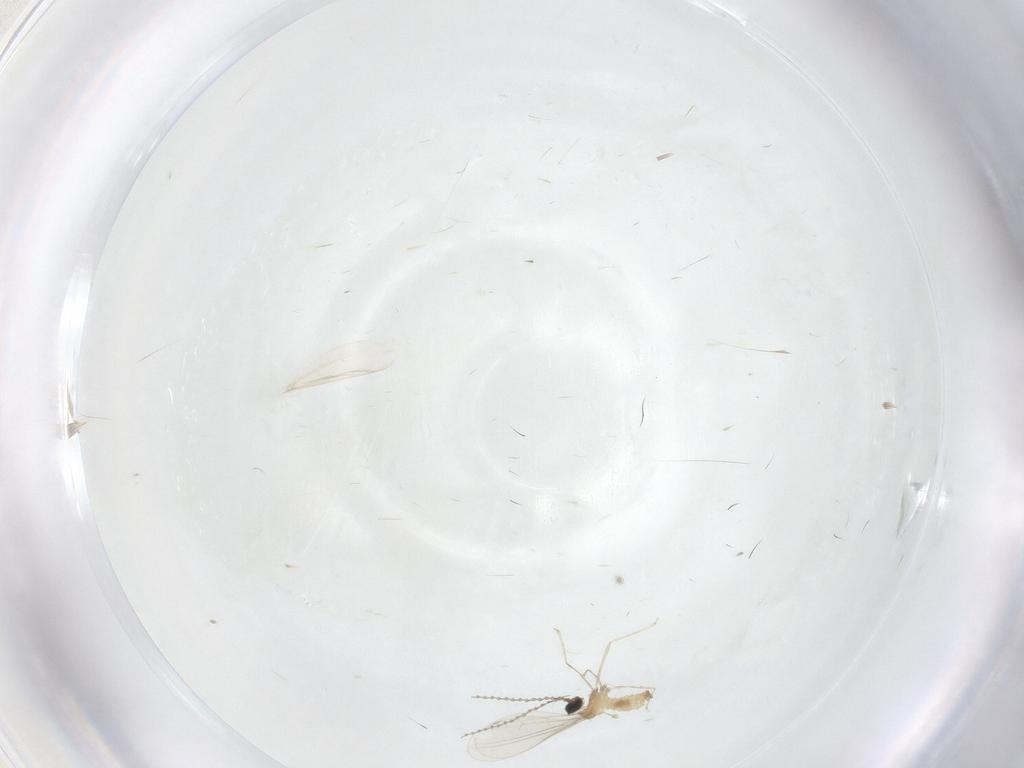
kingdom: Animalia
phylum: Arthropoda
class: Insecta
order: Diptera
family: Cecidomyiidae
